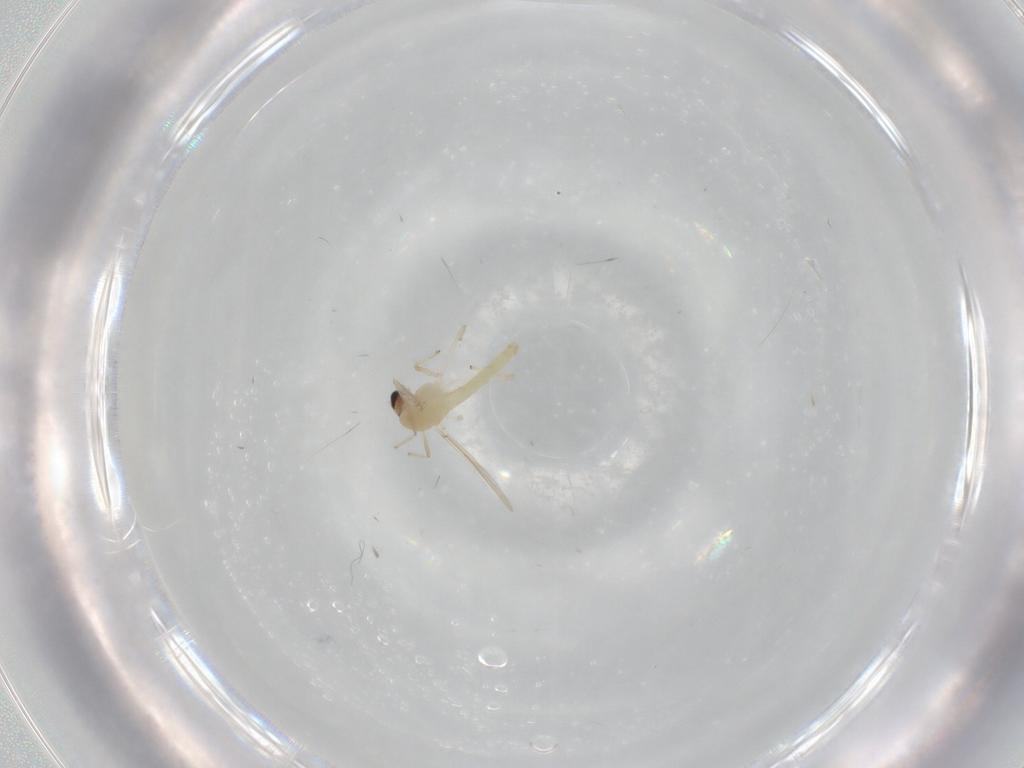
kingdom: Animalia
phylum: Arthropoda
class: Insecta
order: Diptera
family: Chironomidae
